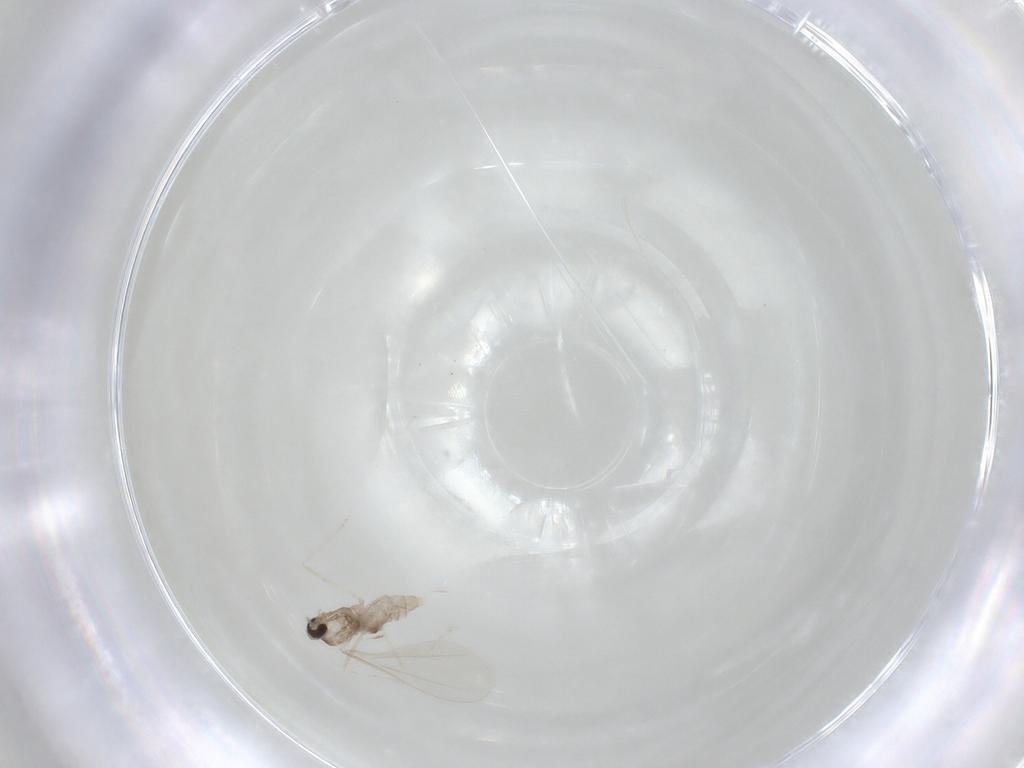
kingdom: Animalia
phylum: Arthropoda
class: Insecta
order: Diptera
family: Cecidomyiidae
